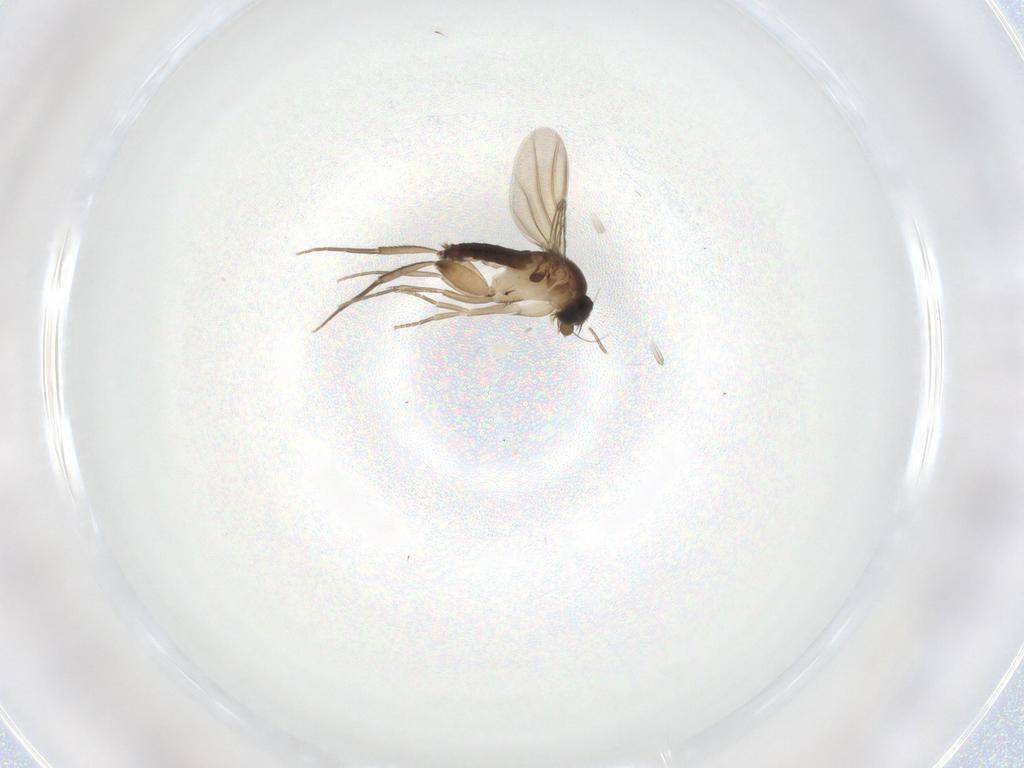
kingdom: Animalia
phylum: Arthropoda
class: Insecta
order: Diptera
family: Phoridae
